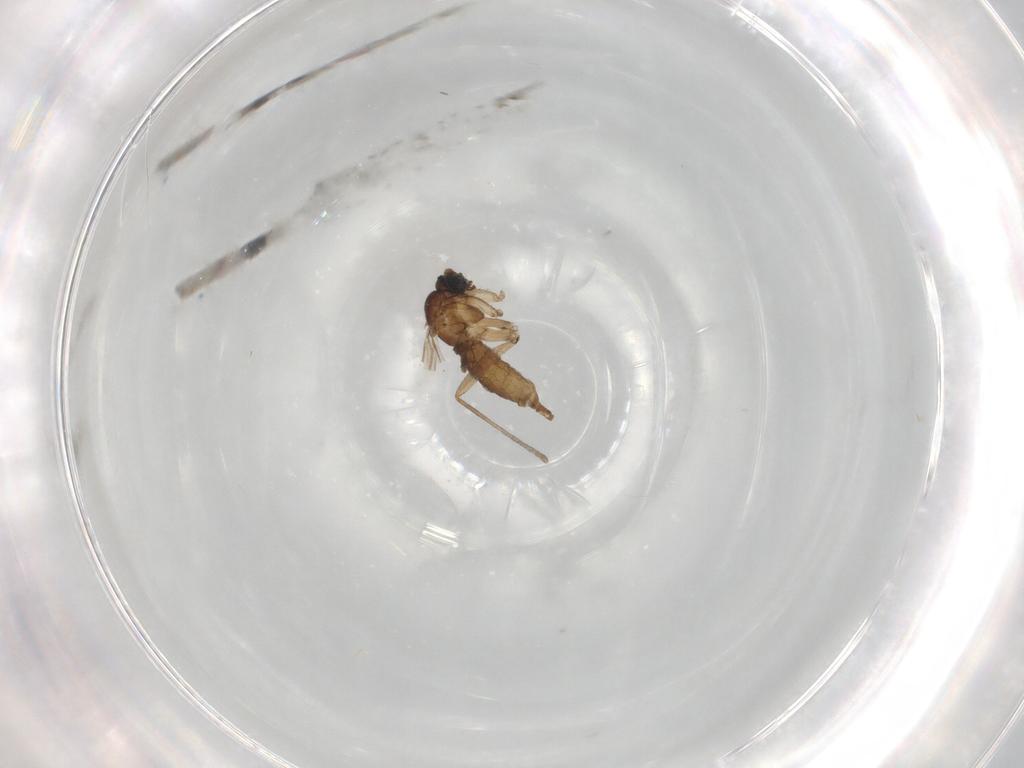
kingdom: Animalia
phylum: Arthropoda
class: Insecta
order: Diptera
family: Sciaridae
